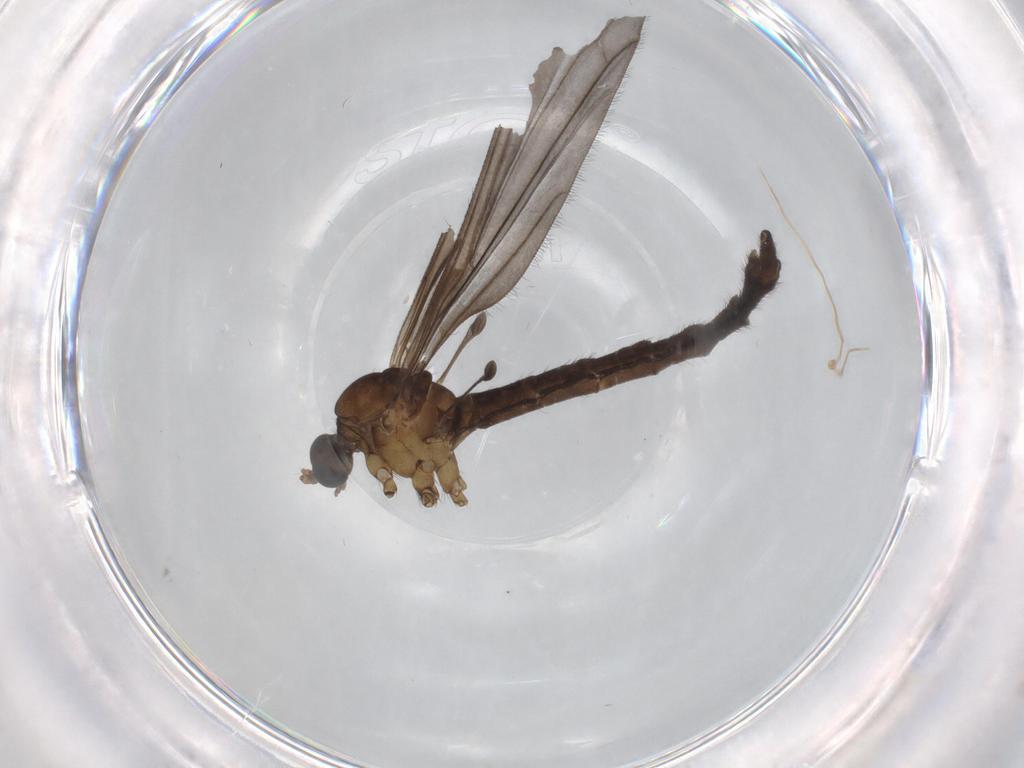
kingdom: Animalia
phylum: Arthropoda
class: Insecta
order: Diptera
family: Limoniidae
